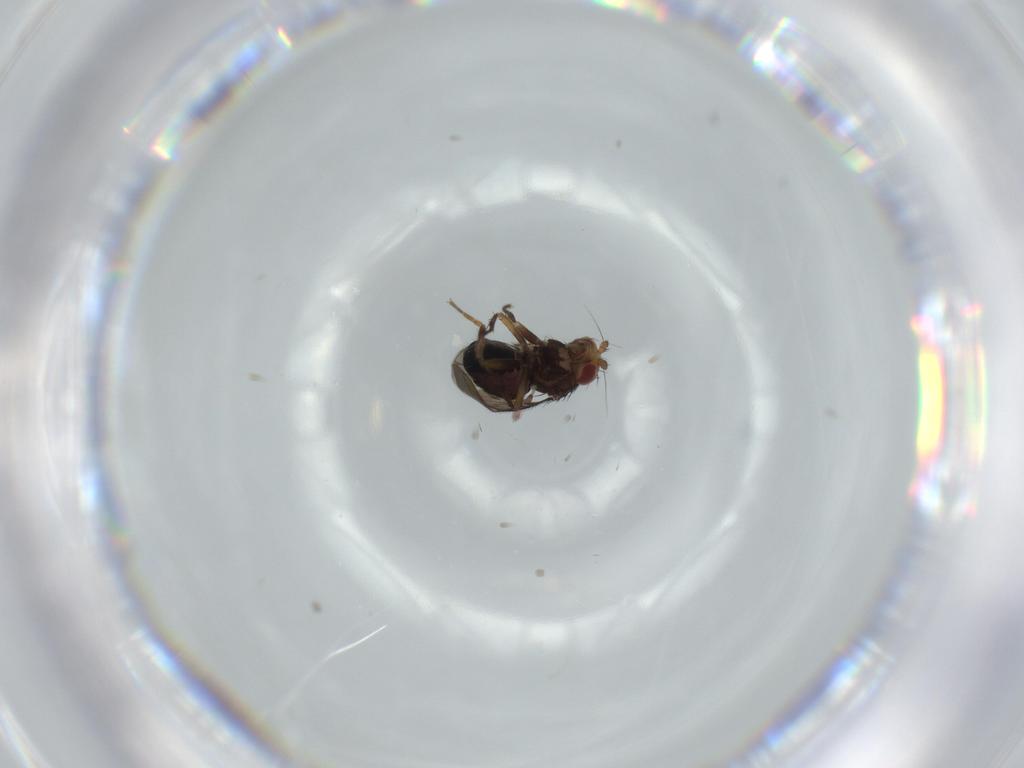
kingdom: Animalia
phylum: Arthropoda
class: Insecta
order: Diptera
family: Sphaeroceridae
